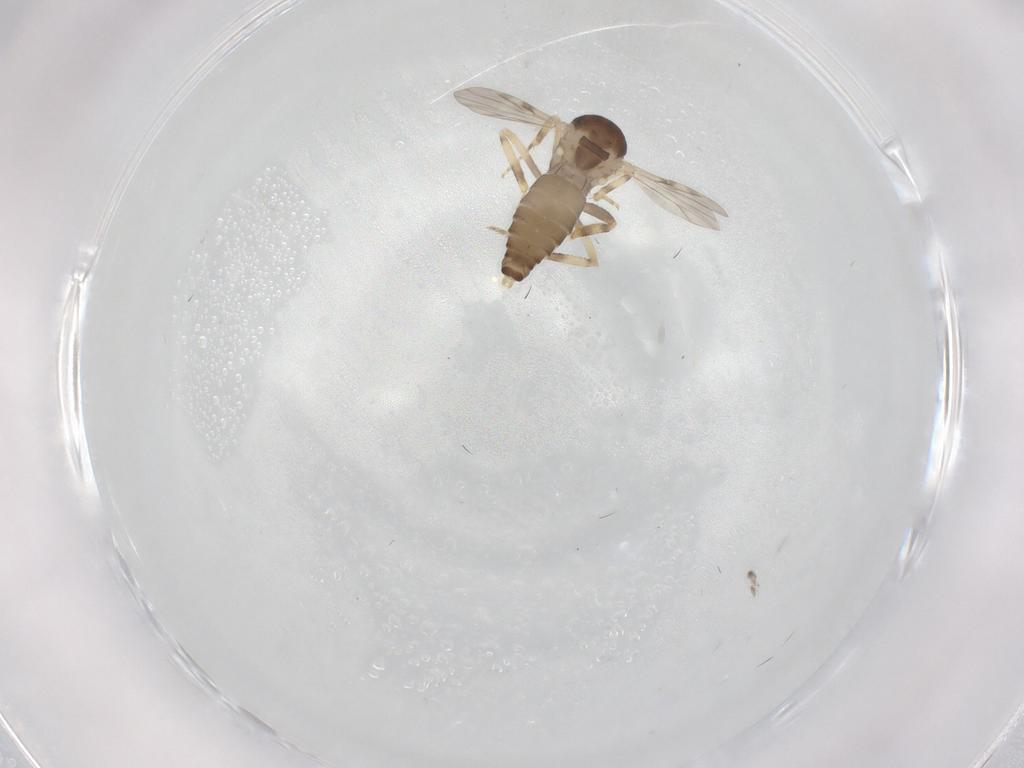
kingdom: Animalia
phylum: Arthropoda
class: Insecta
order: Diptera
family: Ceratopogonidae
